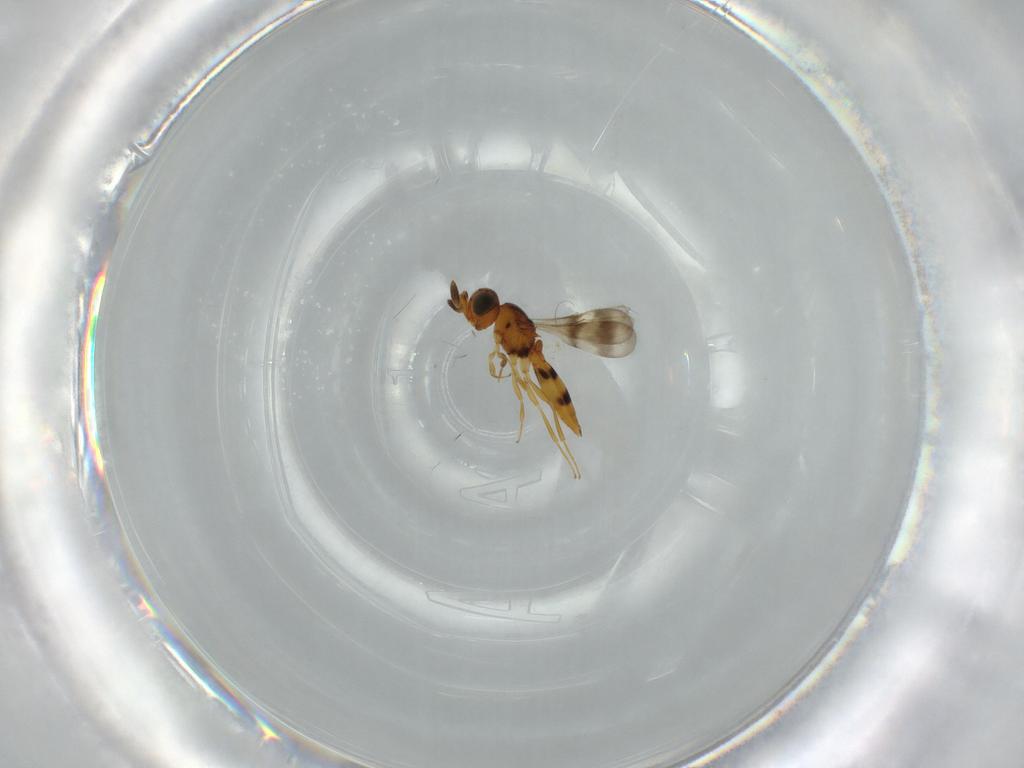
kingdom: Animalia
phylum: Arthropoda
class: Insecta
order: Hymenoptera
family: Scelionidae
